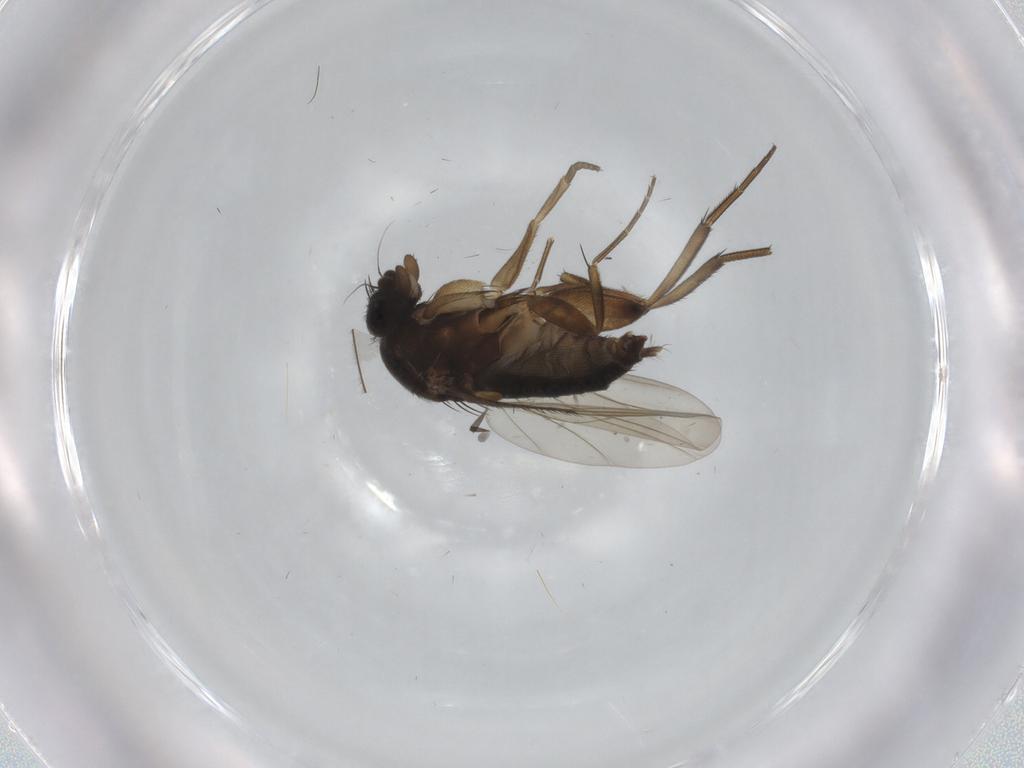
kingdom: Animalia
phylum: Arthropoda
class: Insecta
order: Diptera
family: Phoridae
